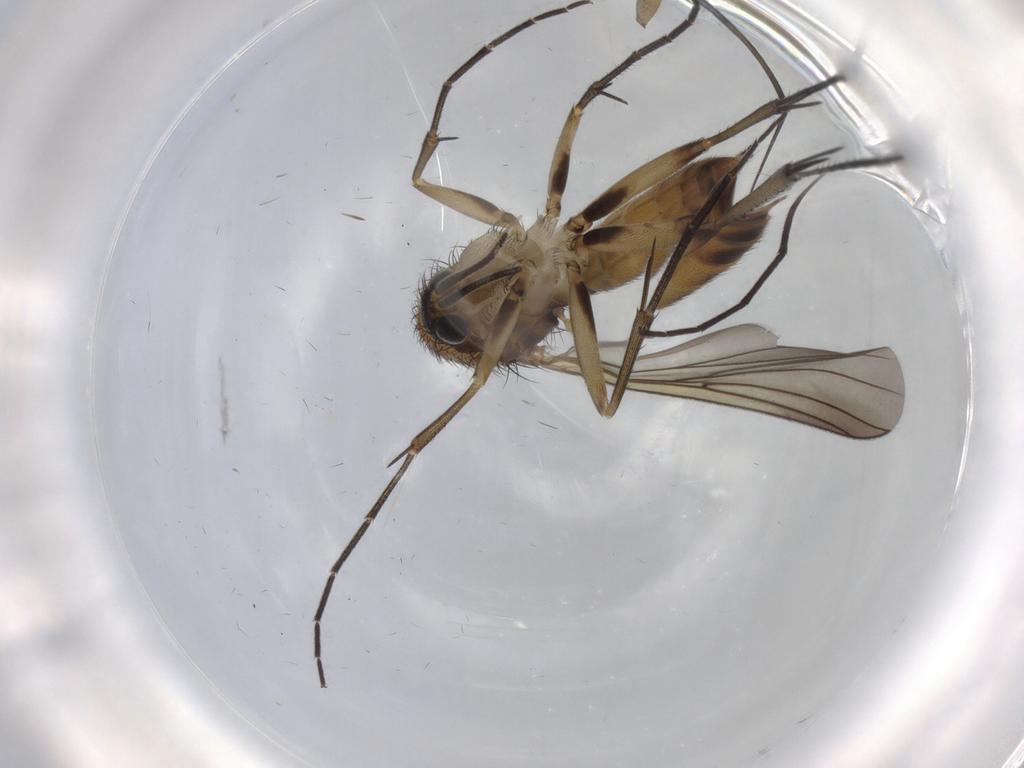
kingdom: Animalia
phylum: Arthropoda
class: Insecta
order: Diptera
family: Mycetophilidae
